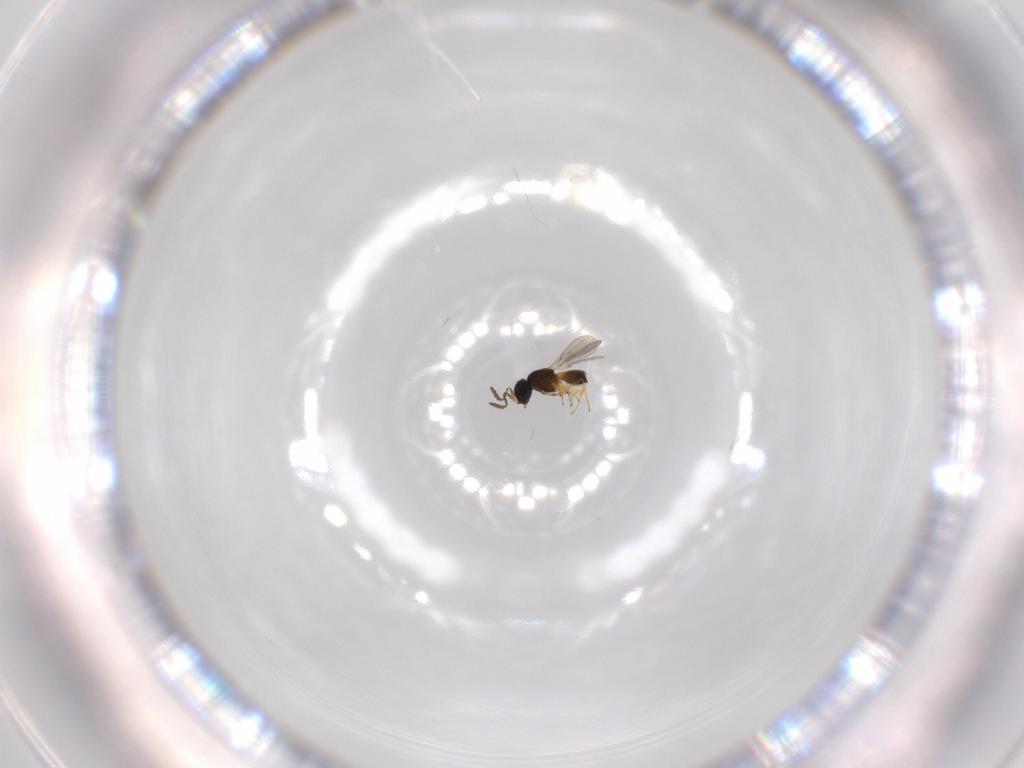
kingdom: Animalia
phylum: Arthropoda
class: Insecta
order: Hymenoptera
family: Scelionidae
